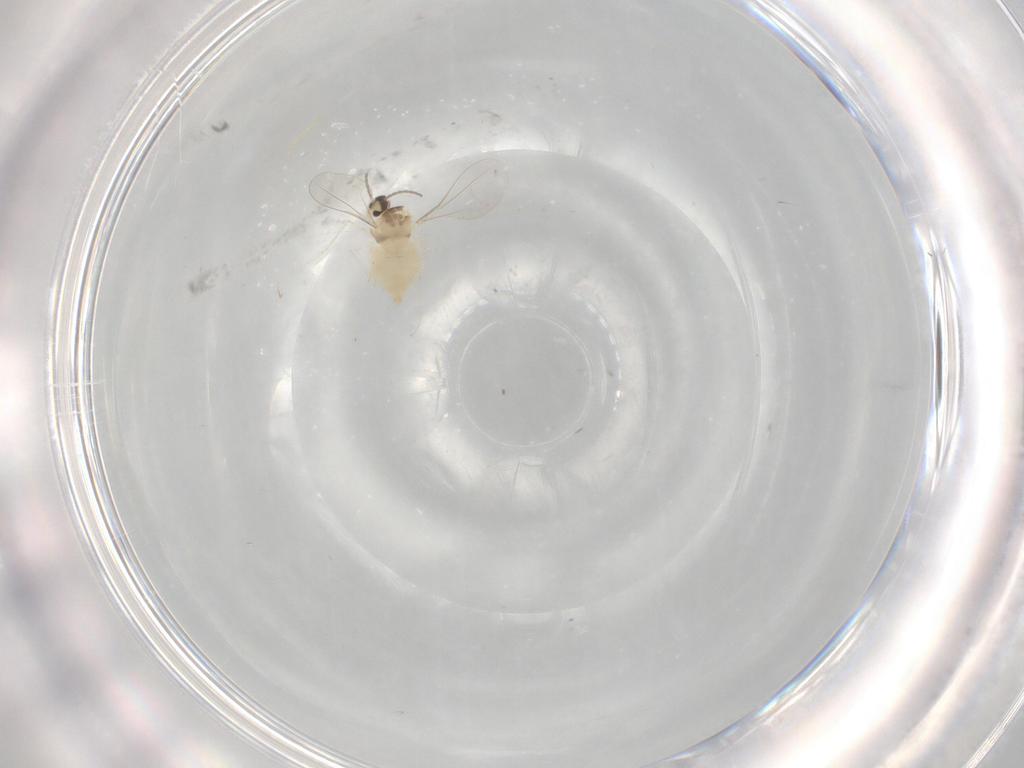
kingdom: Animalia
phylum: Arthropoda
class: Insecta
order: Diptera
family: Cecidomyiidae
